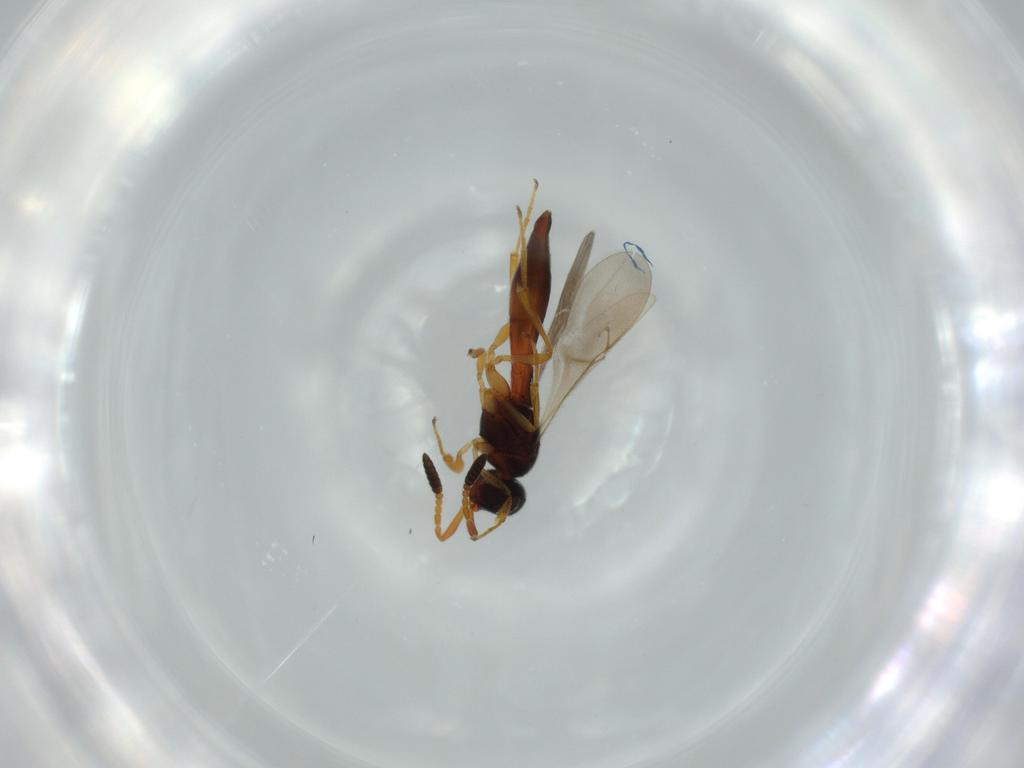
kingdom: Animalia
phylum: Arthropoda
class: Insecta
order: Hymenoptera
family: Scelionidae
